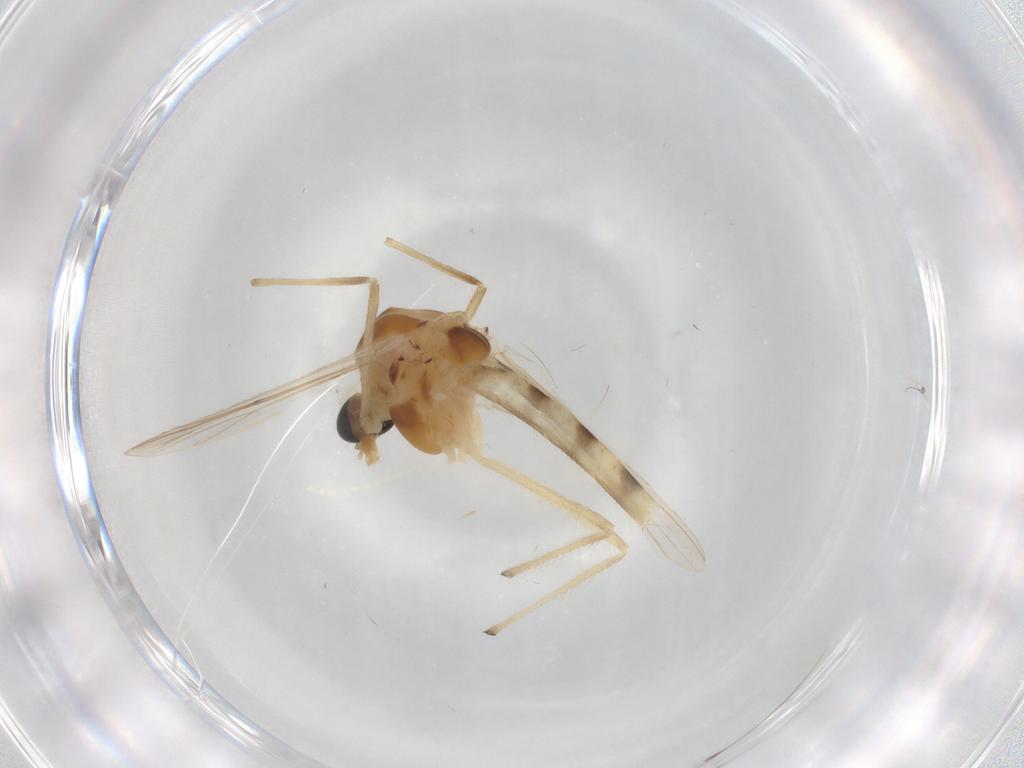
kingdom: Animalia
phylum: Arthropoda
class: Insecta
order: Diptera
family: Chironomidae
